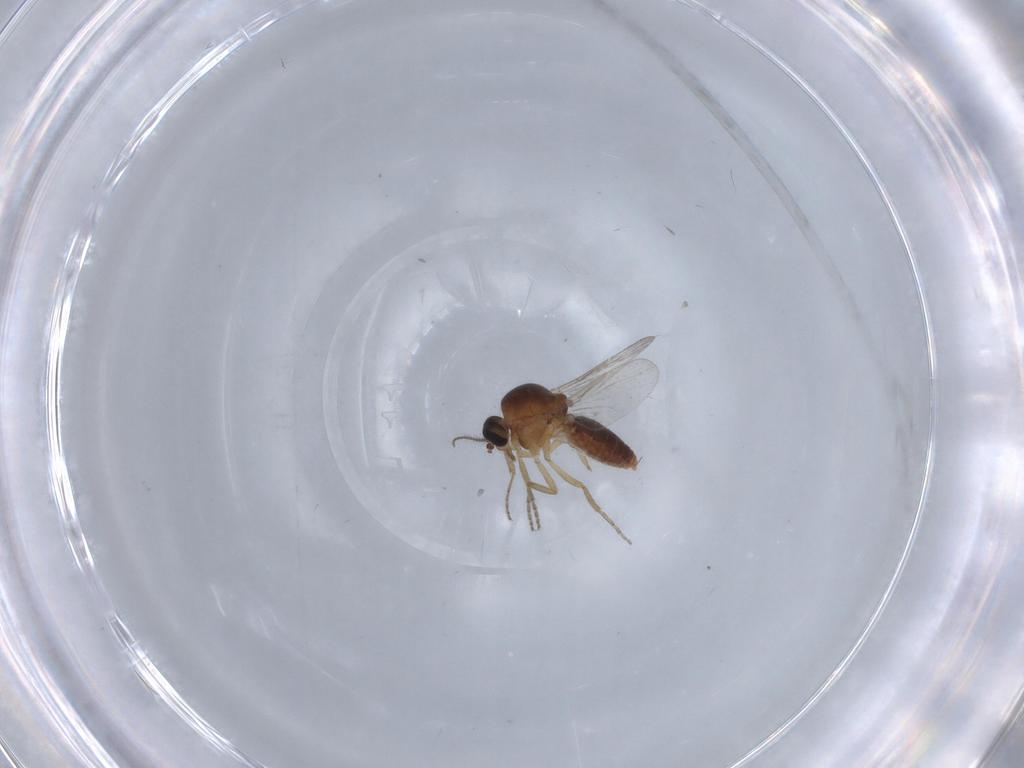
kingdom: Animalia
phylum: Arthropoda
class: Insecta
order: Diptera
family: Ceratopogonidae
